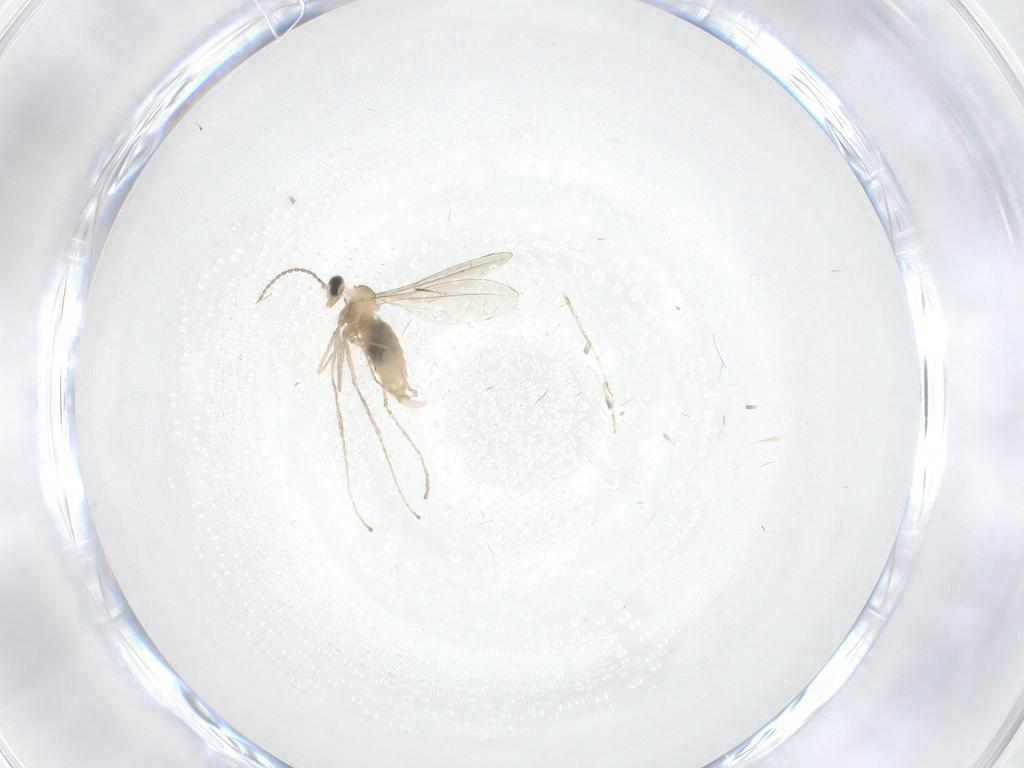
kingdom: Animalia
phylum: Arthropoda
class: Insecta
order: Diptera
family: Cecidomyiidae
